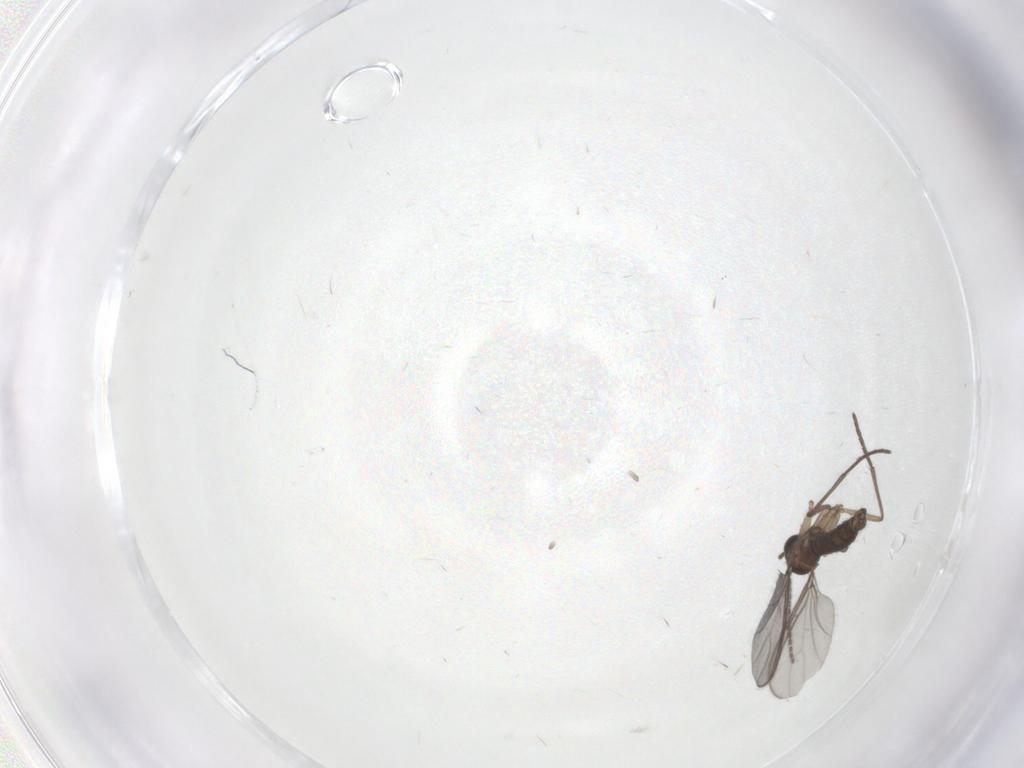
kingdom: Animalia
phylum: Arthropoda
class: Insecta
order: Diptera
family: Sciaridae
